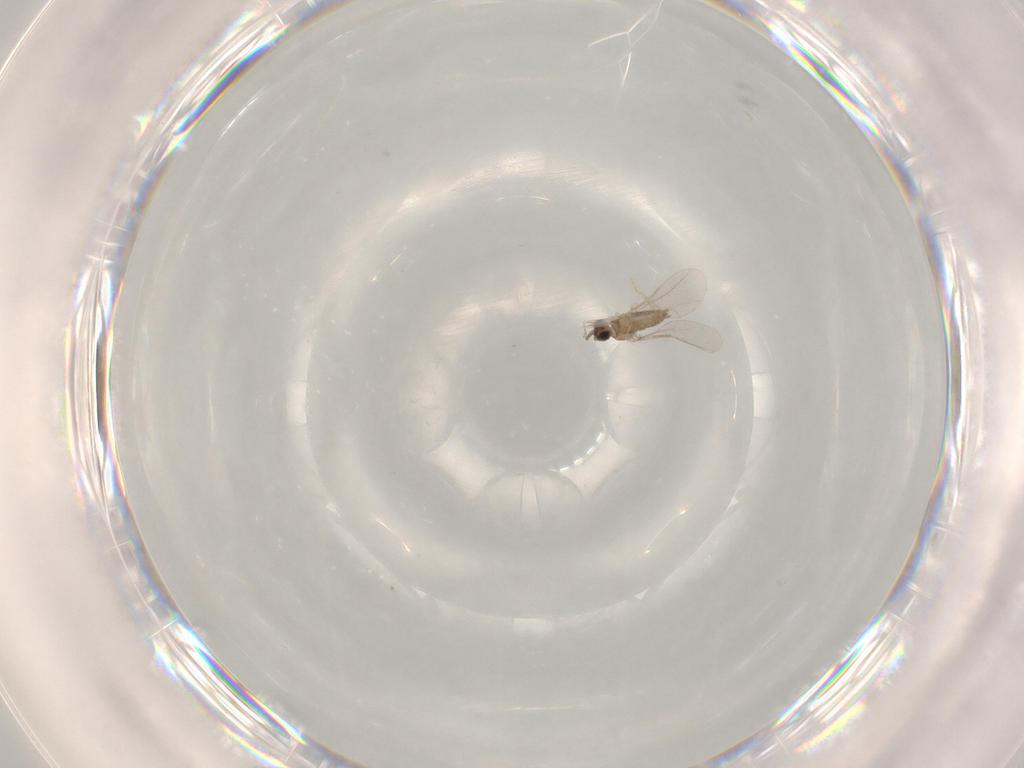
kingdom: Animalia
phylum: Arthropoda
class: Insecta
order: Diptera
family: Cecidomyiidae
